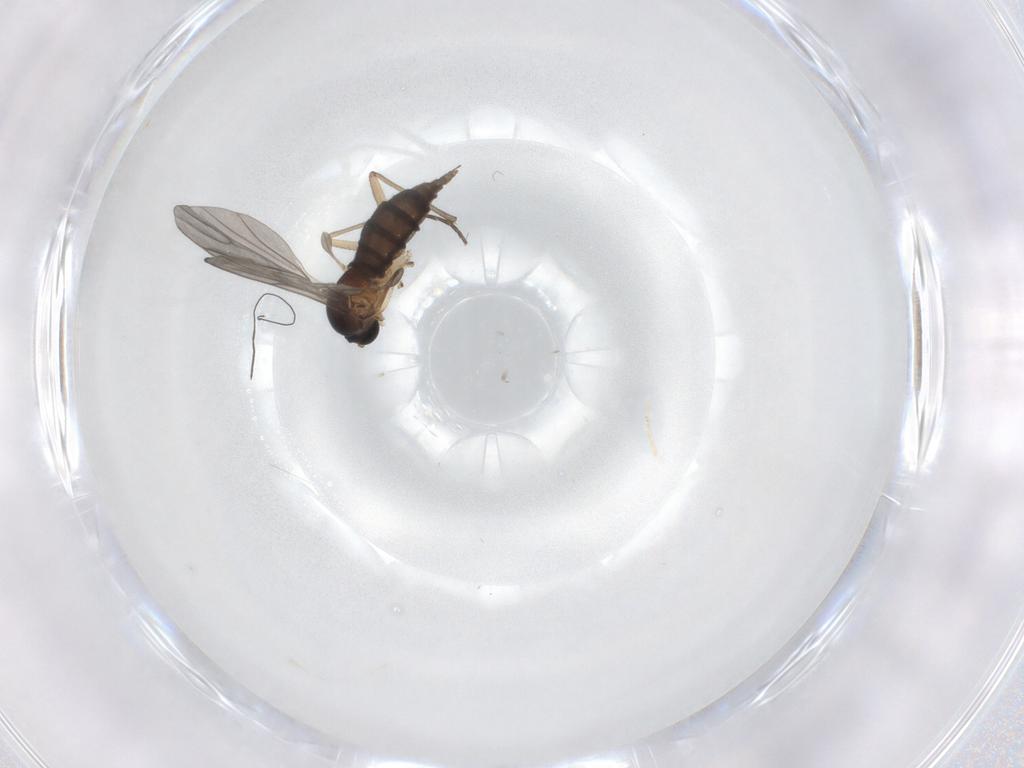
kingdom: Animalia
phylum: Arthropoda
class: Insecta
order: Diptera
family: Sciaridae
